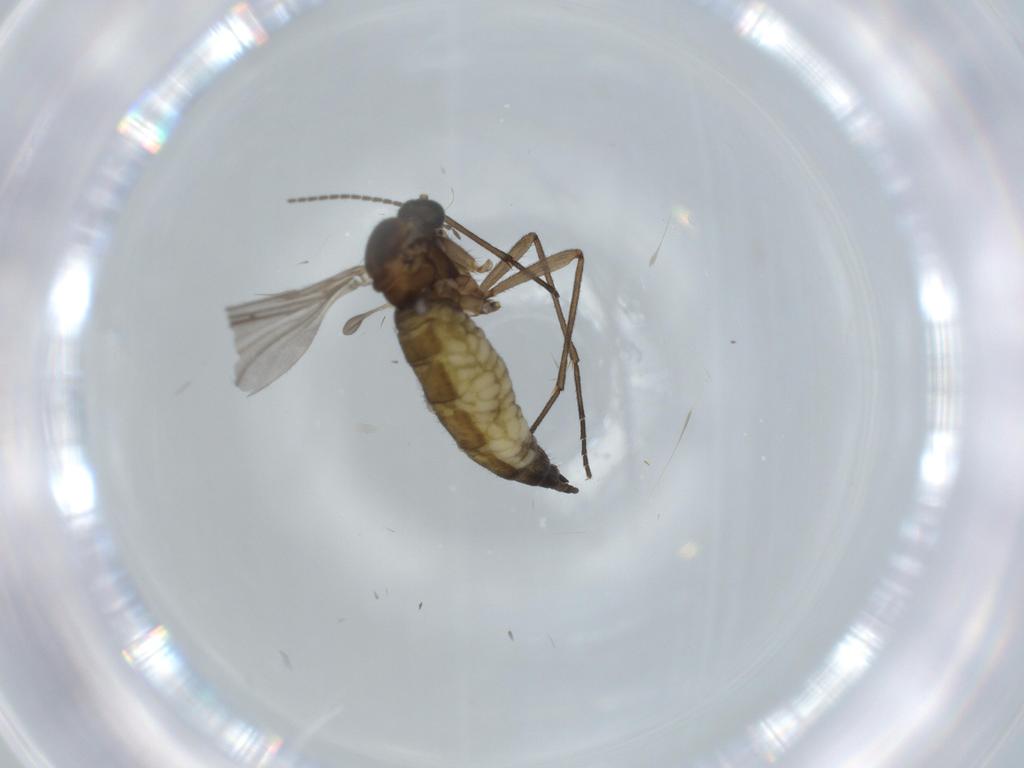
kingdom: Animalia
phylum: Arthropoda
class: Insecta
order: Diptera
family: Sciaridae
